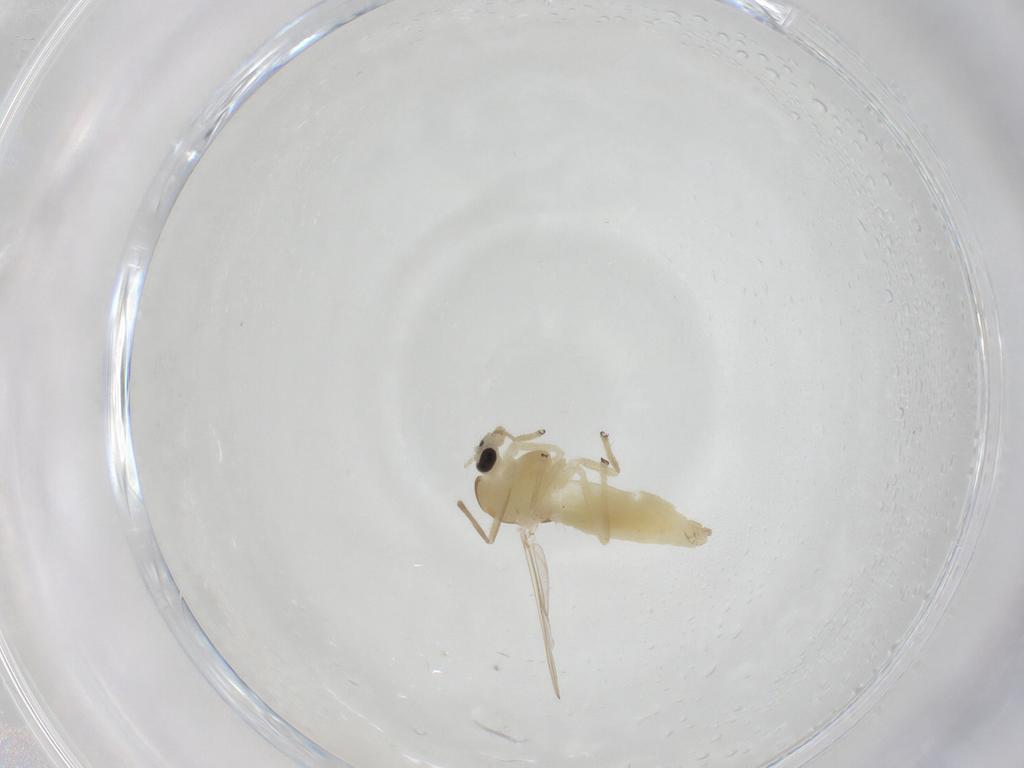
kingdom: Animalia
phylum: Arthropoda
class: Insecta
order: Diptera
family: Chironomidae
